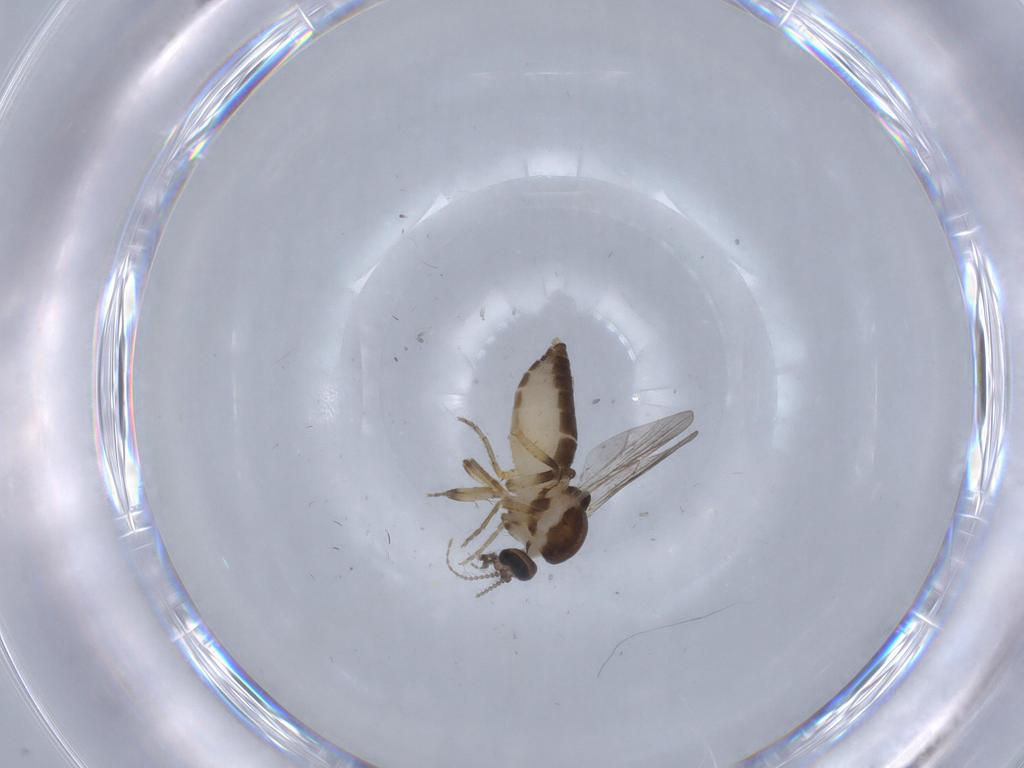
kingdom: Animalia
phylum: Arthropoda
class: Insecta
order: Diptera
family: Ceratopogonidae
